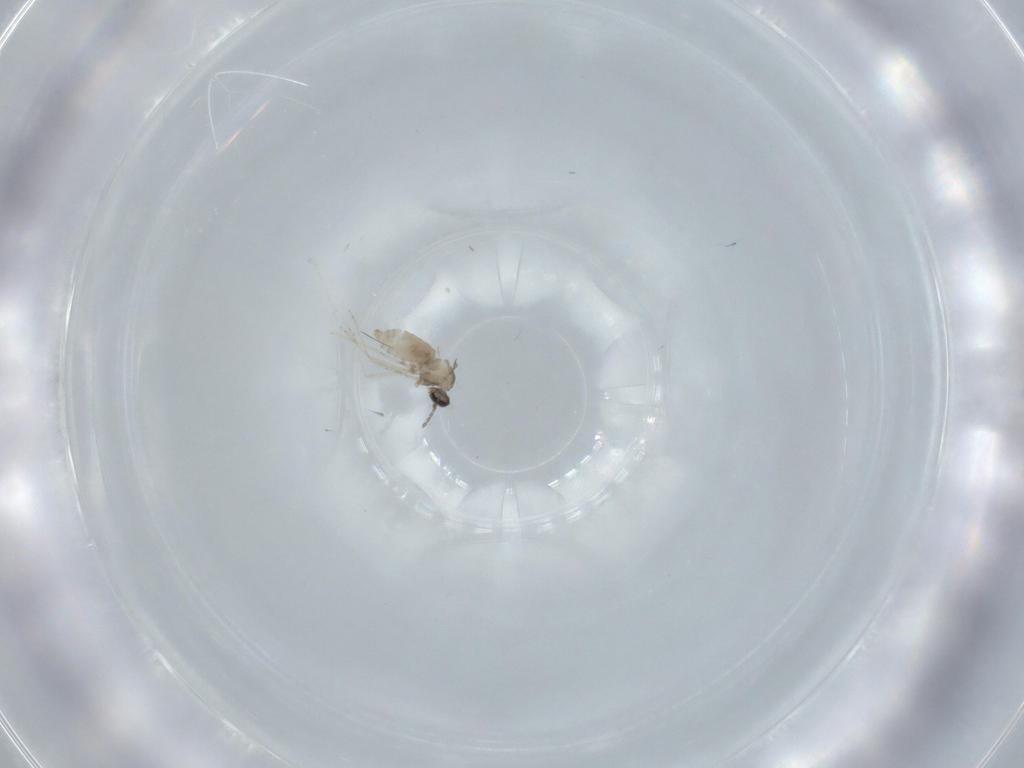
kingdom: Animalia
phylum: Arthropoda
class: Insecta
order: Diptera
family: Cecidomyiidae
